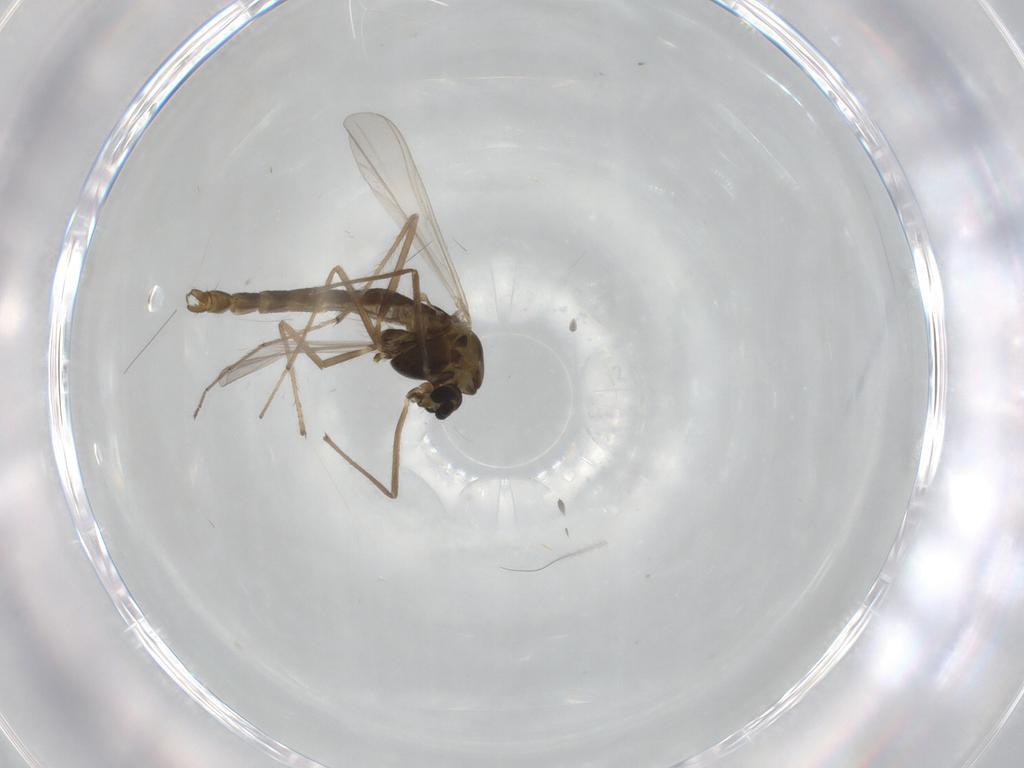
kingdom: Animalia
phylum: Arthropoda
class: Insecta
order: Diptera
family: Chironomidae
